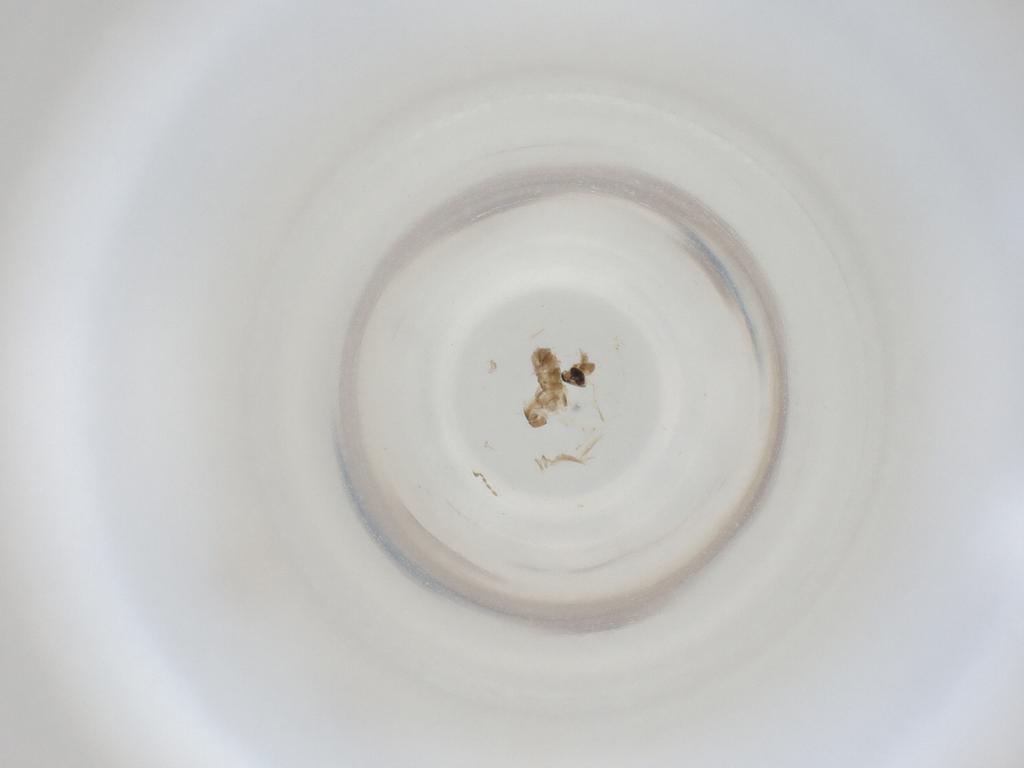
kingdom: Animalia
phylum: Arthropoda
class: Insecta
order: Diptera
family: Cecidomyiidae
